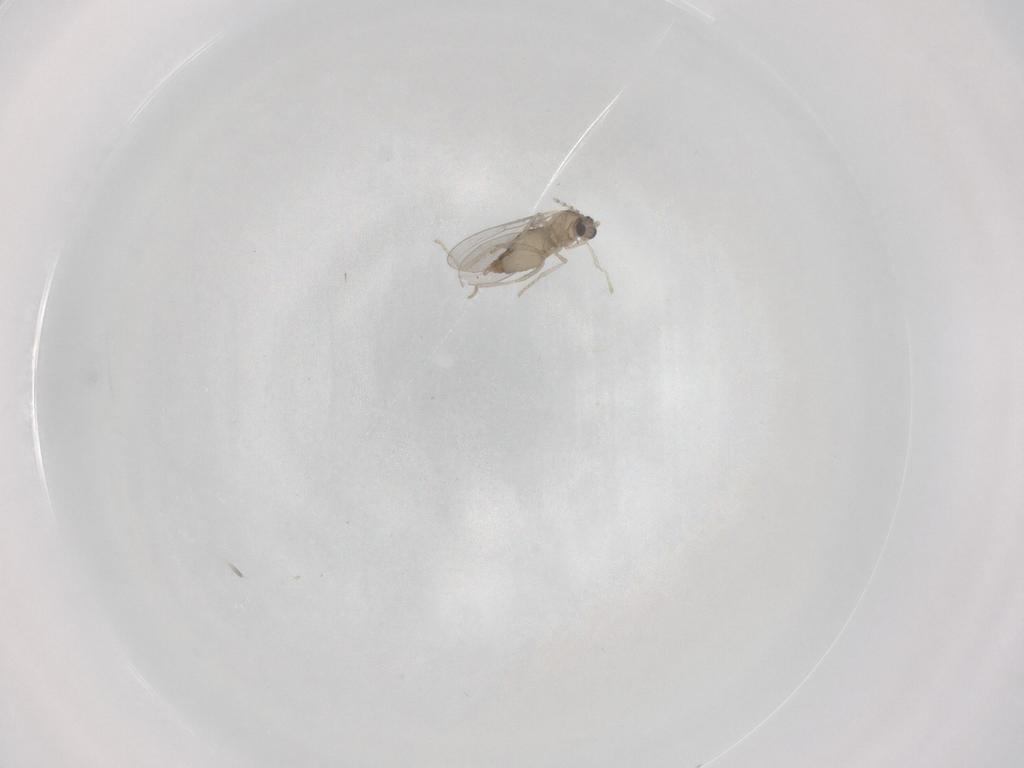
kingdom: Animalia
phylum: Arthropoda
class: Insecta
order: Diptera
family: Cecidomyiidae
